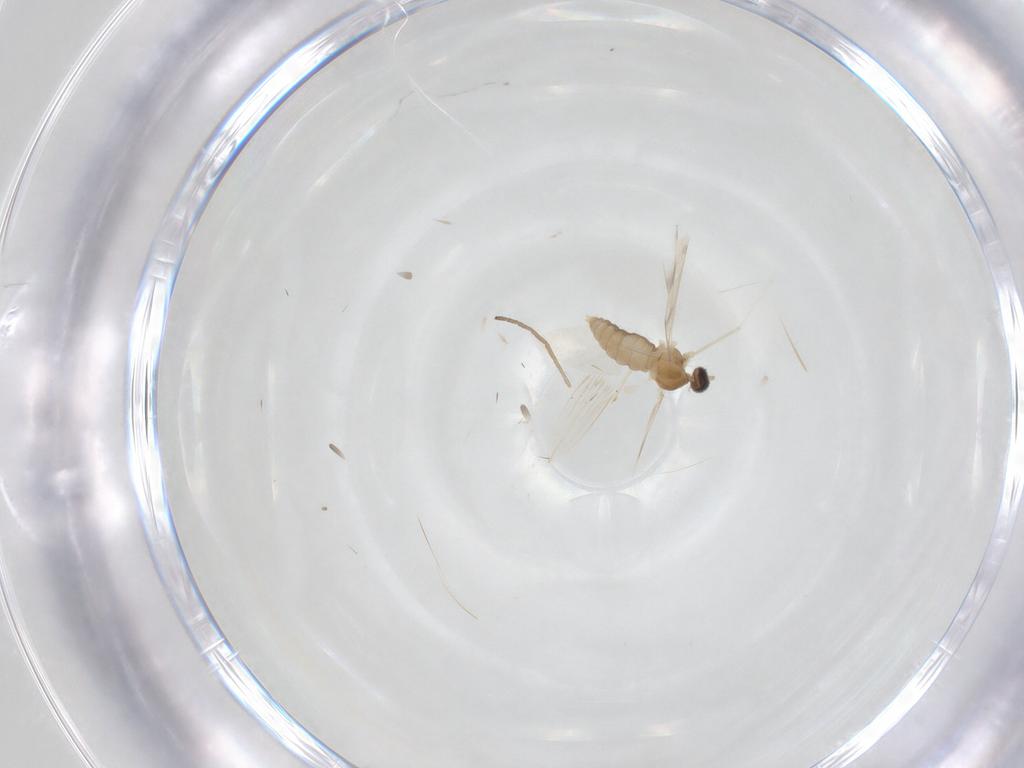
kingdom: Animalia
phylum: Arthropoda
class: Insecta
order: Diptera
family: Cecidomyiidae
